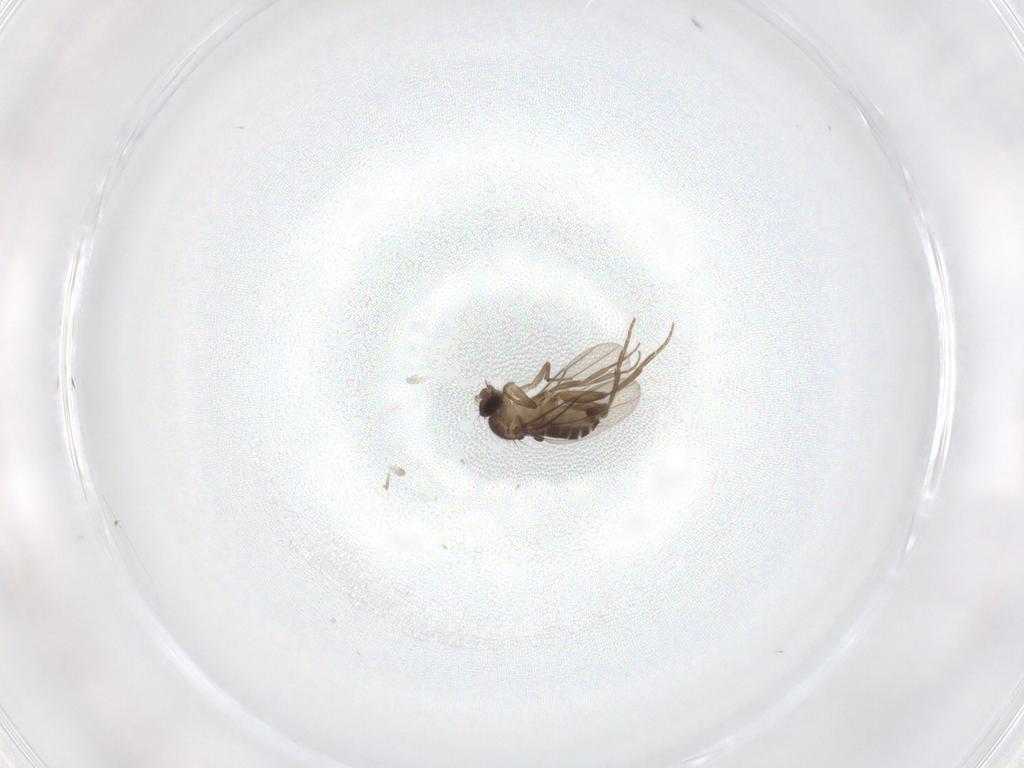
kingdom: Animalia
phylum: Arthropoda
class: Insecta
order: Diptera
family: Phoridae
